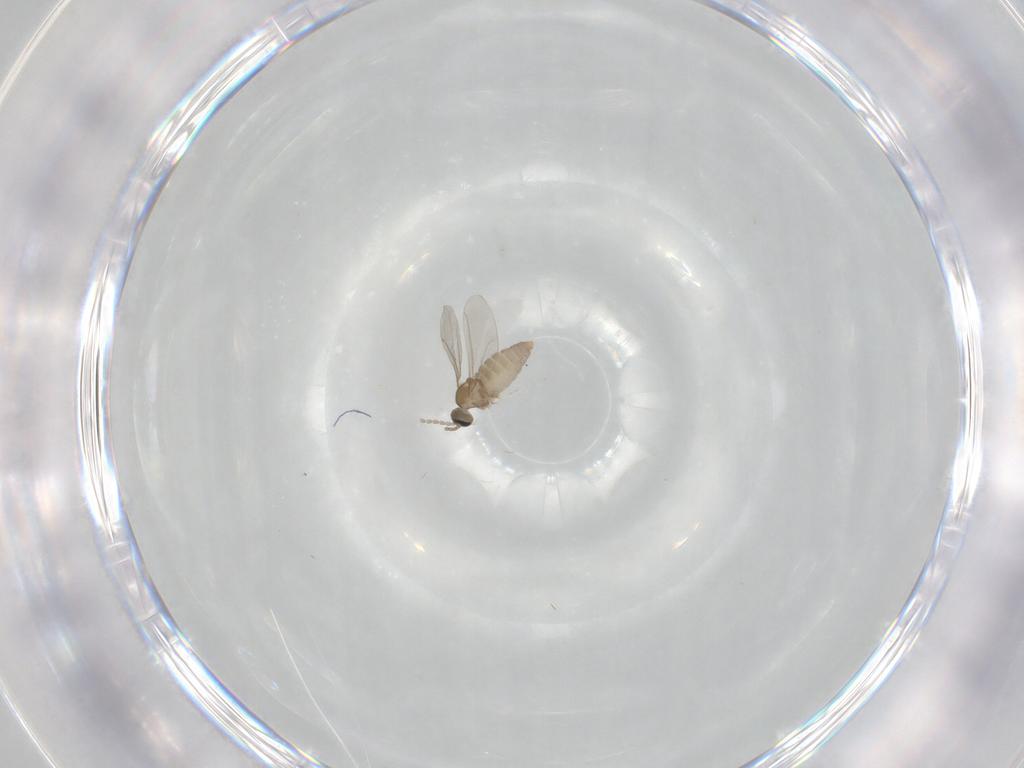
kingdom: Animalia
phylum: Arthropoda
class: Insecta
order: Diptera
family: Cecidomyiidae
